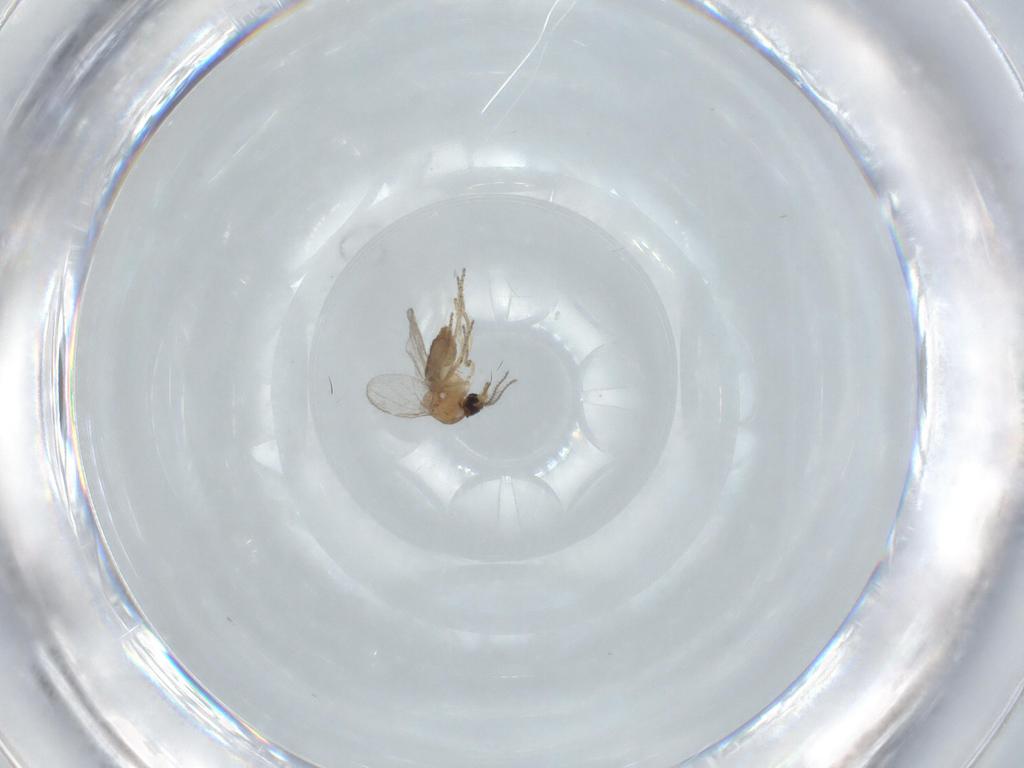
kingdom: Animalia
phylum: Arthropoda
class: Insecta
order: Diptera
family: Ceratopogonidae
